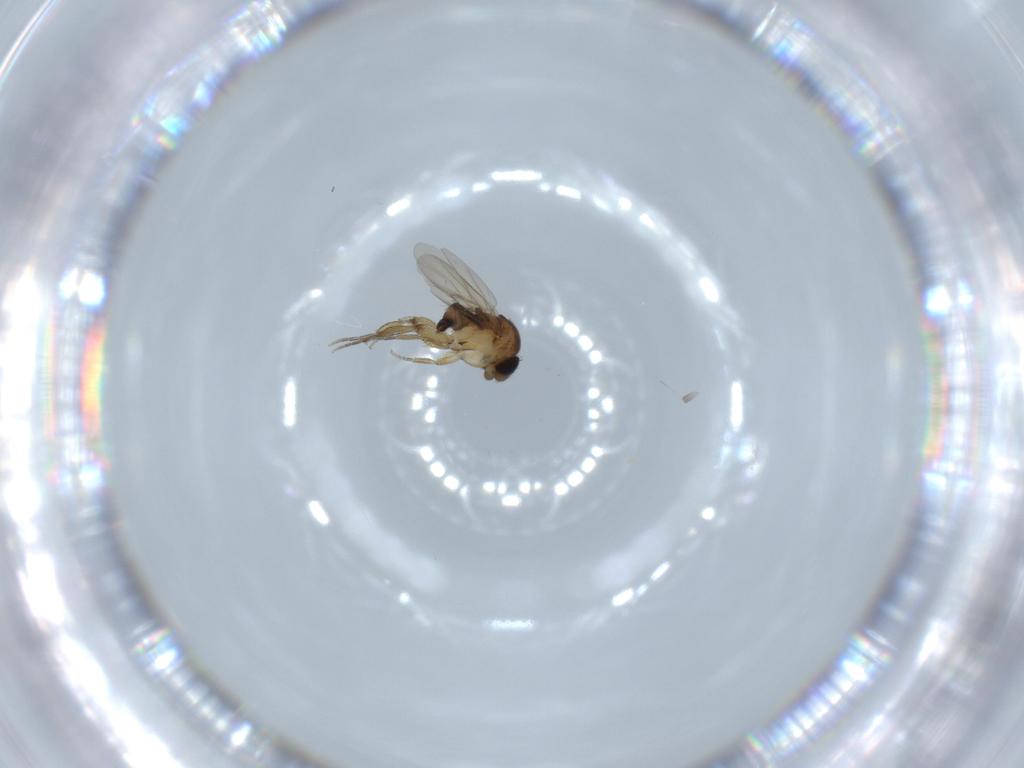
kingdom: Animalia
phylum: Arthropoda
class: Insecta
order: Diptera
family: Phoridae
